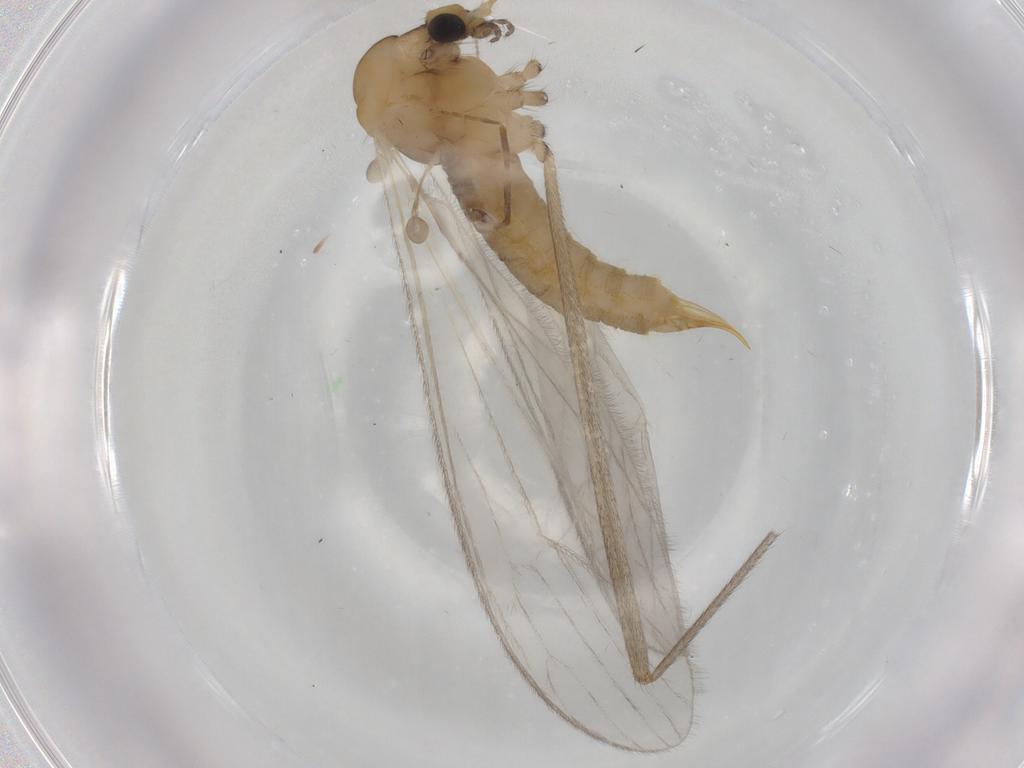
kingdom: Animalia
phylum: Arthropoda
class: Insecta
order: Diptera
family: Limoniidae
